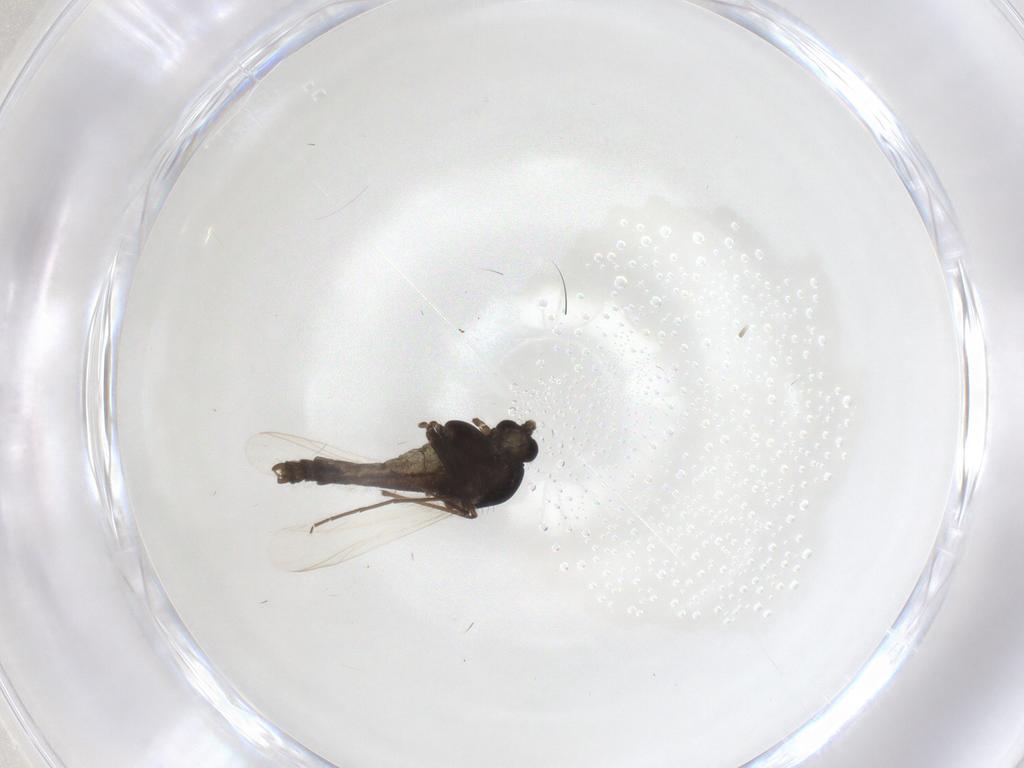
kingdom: Animalia
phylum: Arthropoda
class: Insecta
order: Diptera
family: Chironomidae
